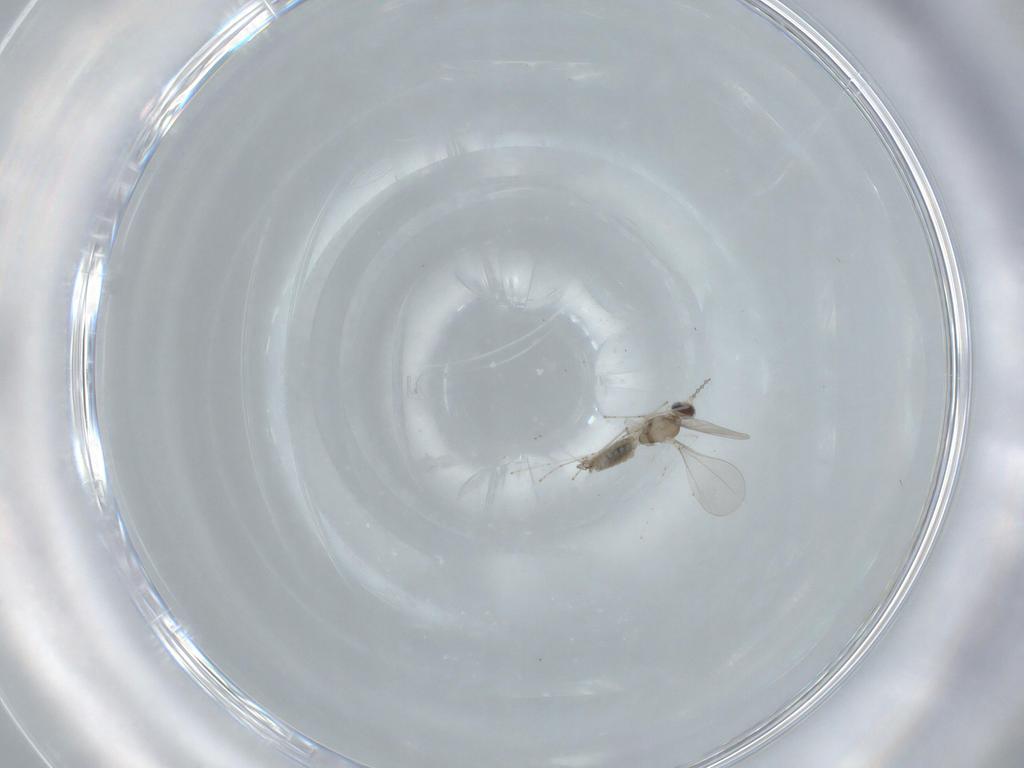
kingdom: Animalia
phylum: Arthropoda
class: Insecta
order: Diptera
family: Cecidomyiidae
